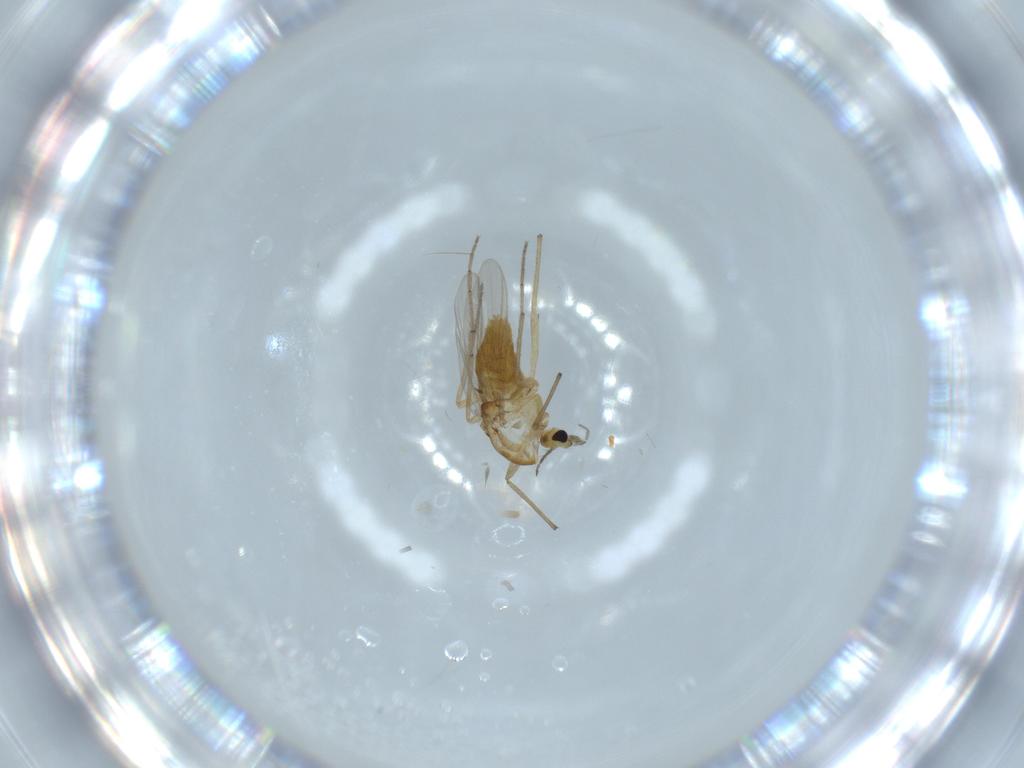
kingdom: Animalia
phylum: Arthropoda
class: Insecta
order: Diptera
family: Chironomidae
